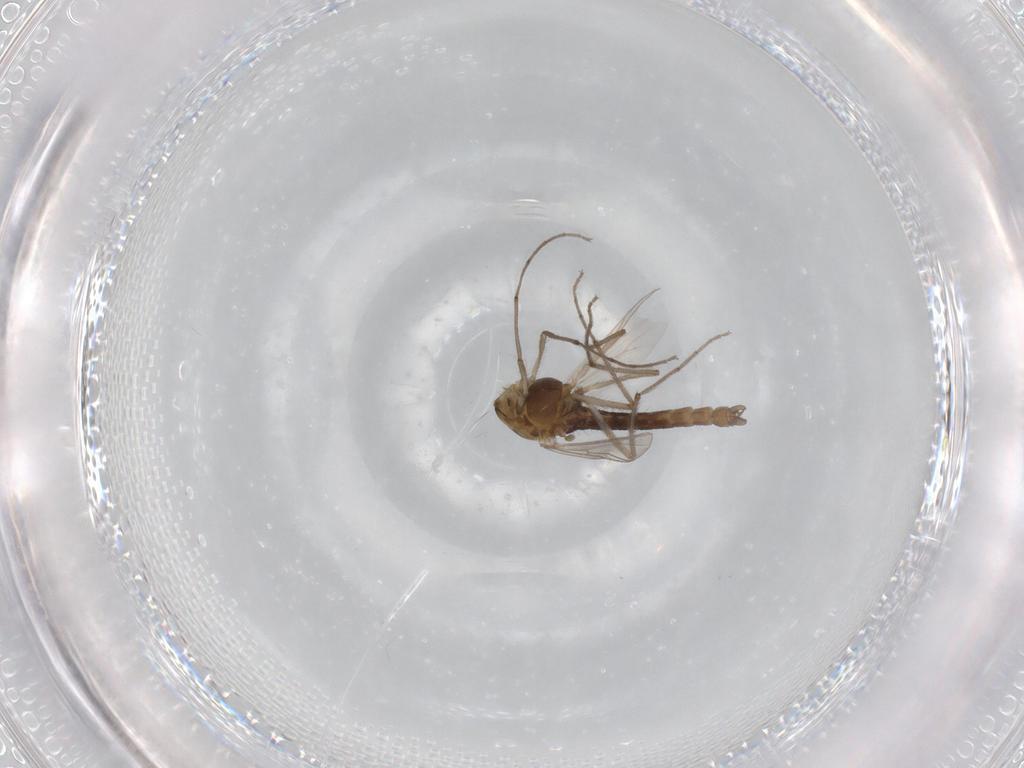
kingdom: Animalia
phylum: Arthropoda
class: Insecta
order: Diptera
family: Chironomidae
